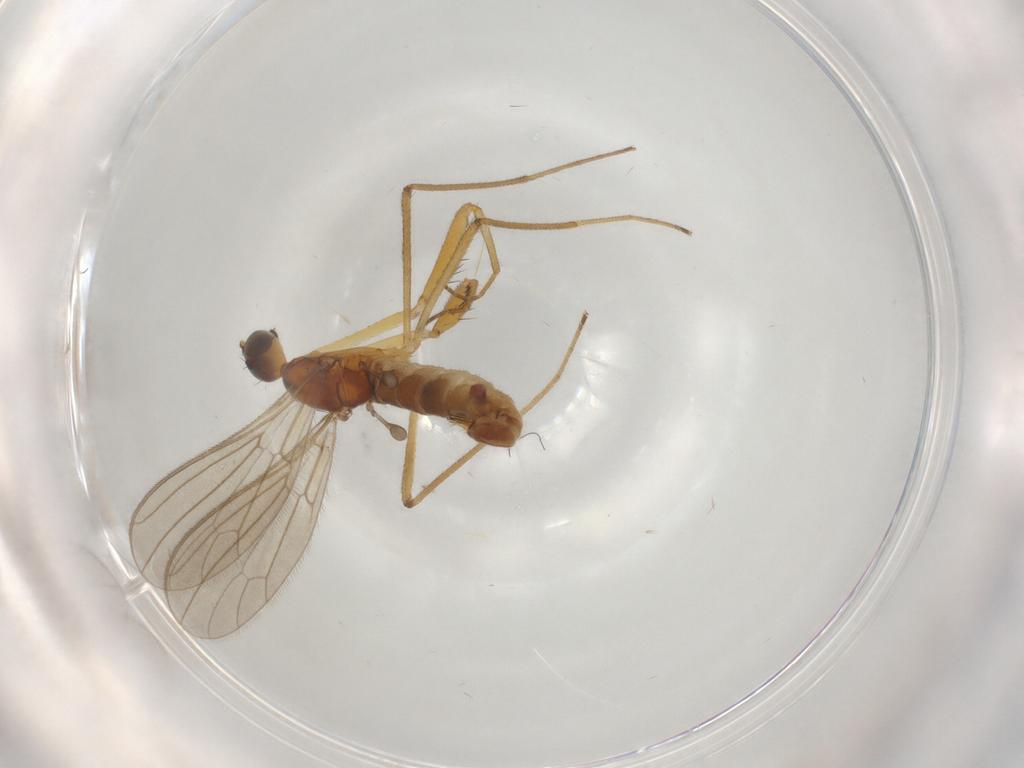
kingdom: Animalia
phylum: Arthropoda
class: Insecta
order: Diptera
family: Empididae
